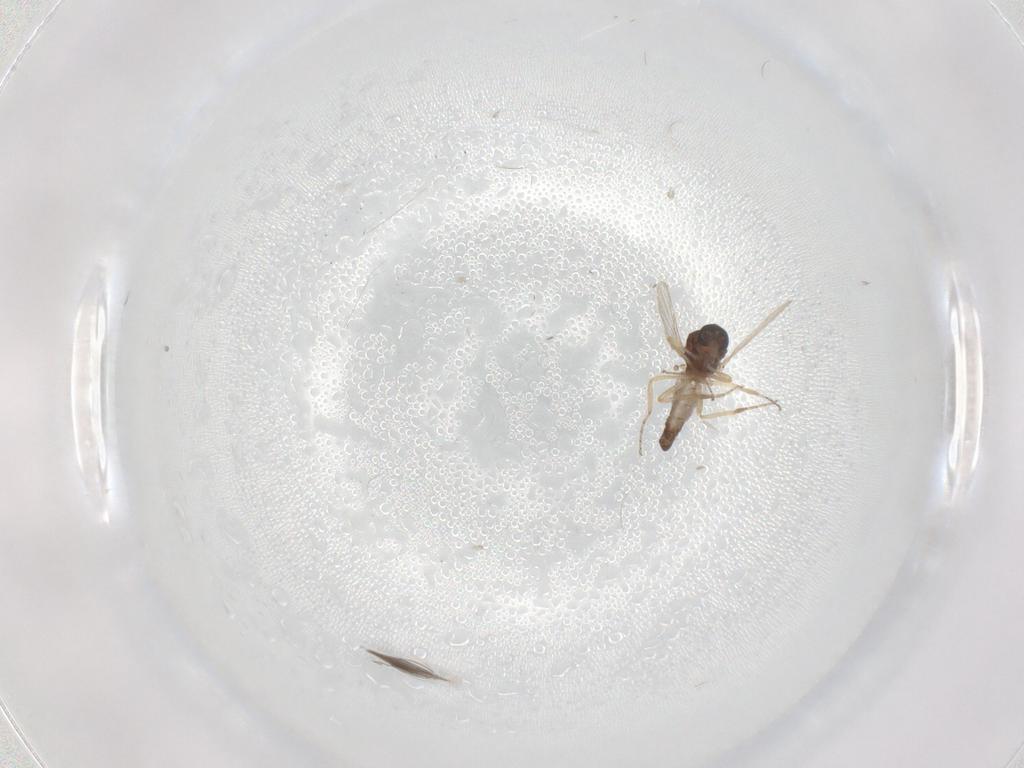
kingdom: Animalia
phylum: Arthropoda
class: Insecta
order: Diptera
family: Ceratopogonidae
